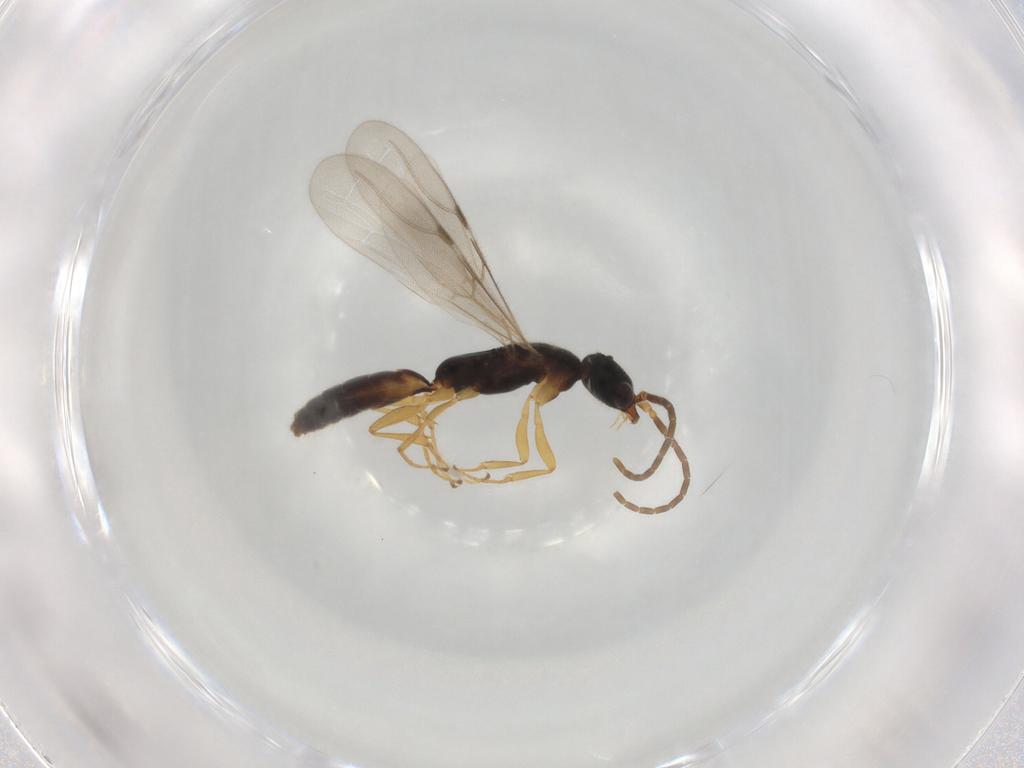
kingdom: Animalia
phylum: Arthropoda
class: Insecta
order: Hymenoptera
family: Bethylidae
